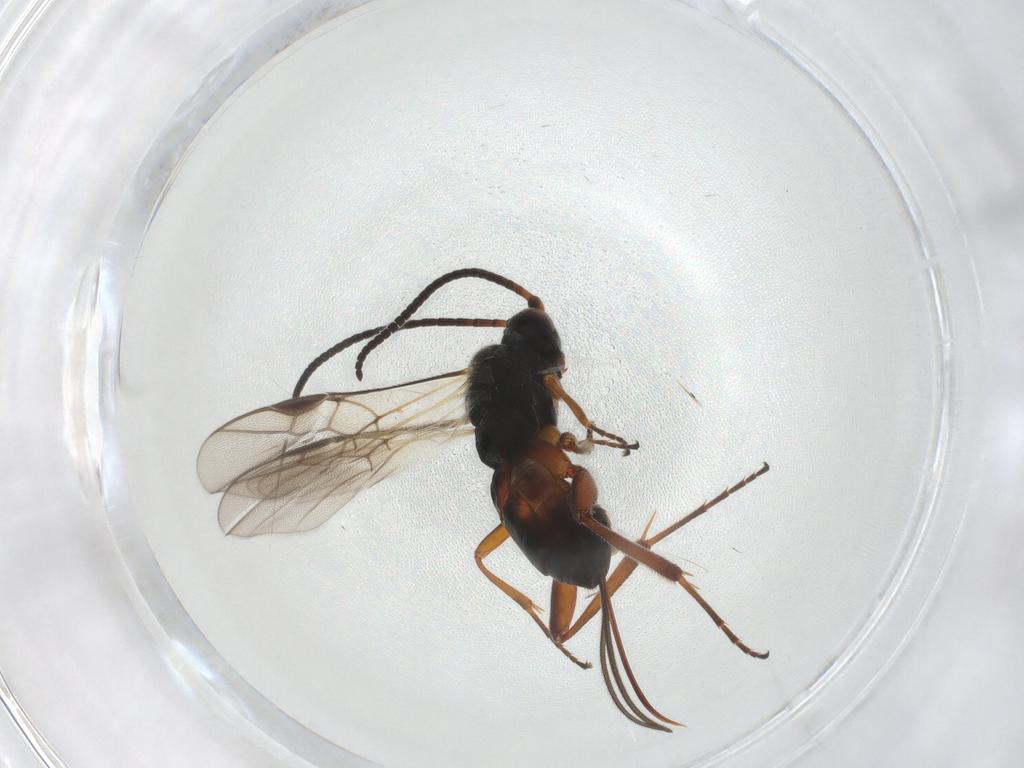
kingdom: Animalia
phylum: Arthropoda
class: Insecta
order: Hymenoptera
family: Braconidae
